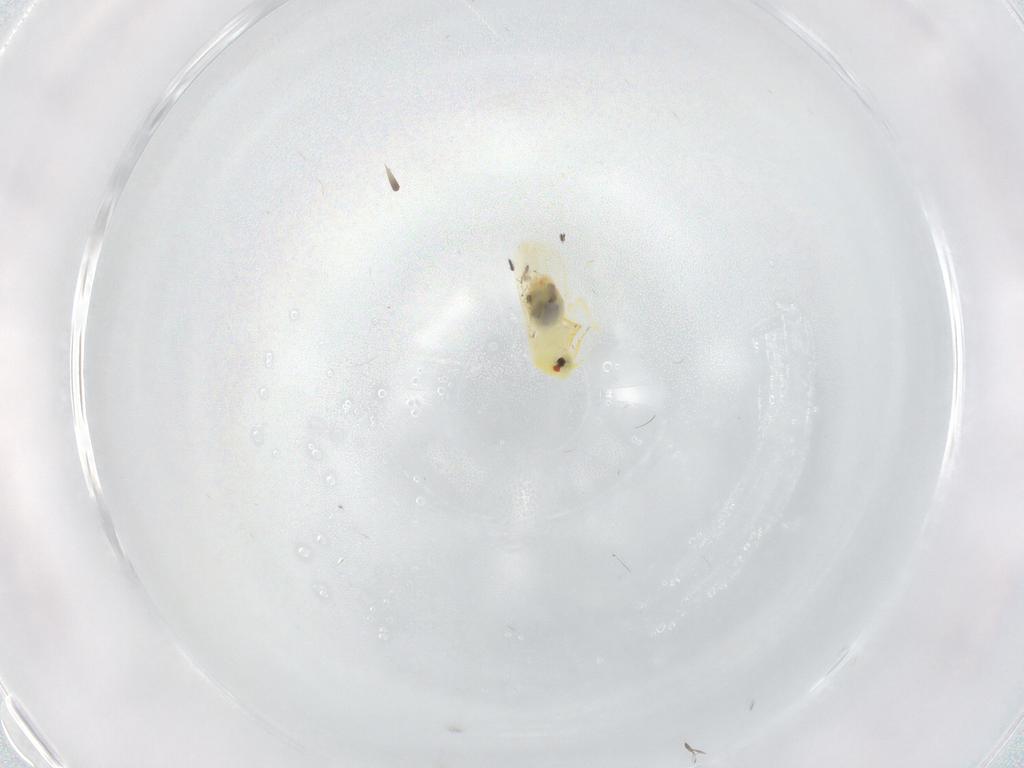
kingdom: Animalia
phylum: Arthropoda
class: Insecta
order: Hemiptera
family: Aleyrodidae
